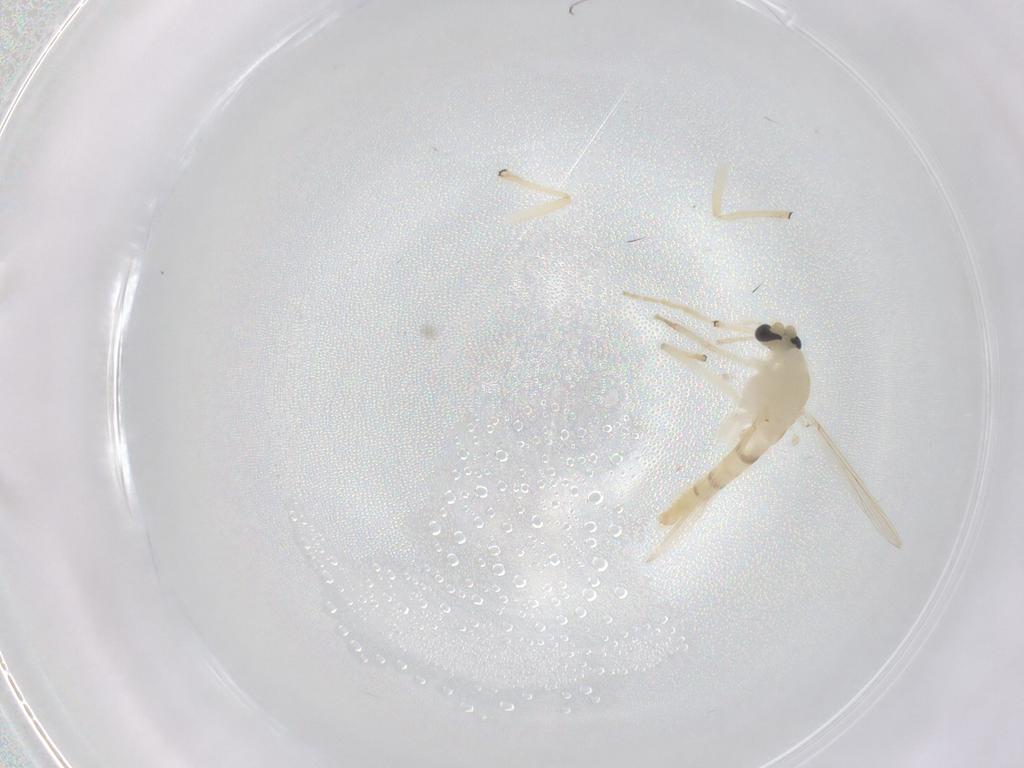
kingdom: Animalia
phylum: Arthropoda
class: Insecta
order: Diptera
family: Chironomidae
